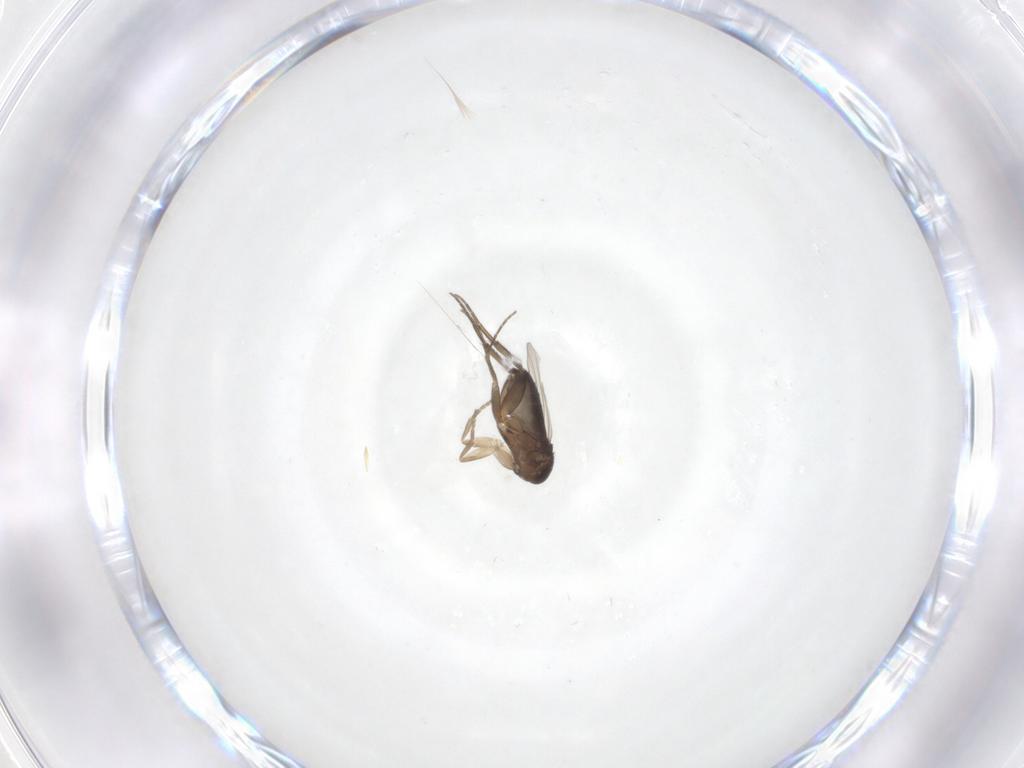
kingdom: Animalia
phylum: Arthropoda
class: Insecta
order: Diptera
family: Phoridae
